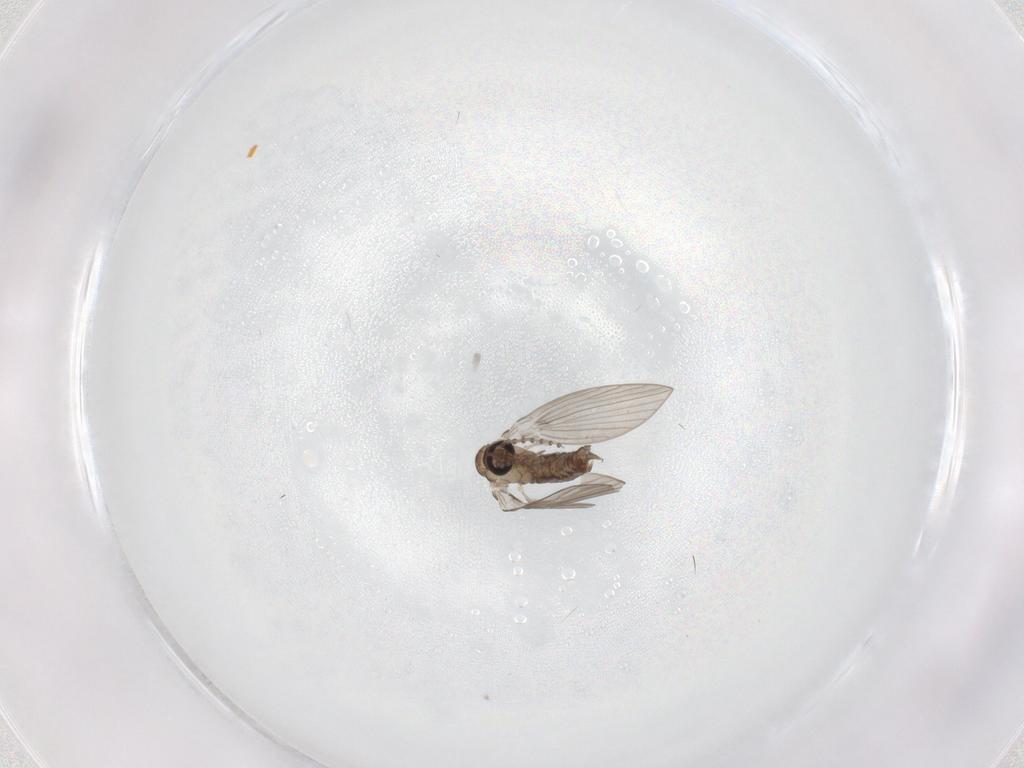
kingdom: Animalia
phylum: Arthropoda
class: Insecta
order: Diptera
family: Psychodidae
